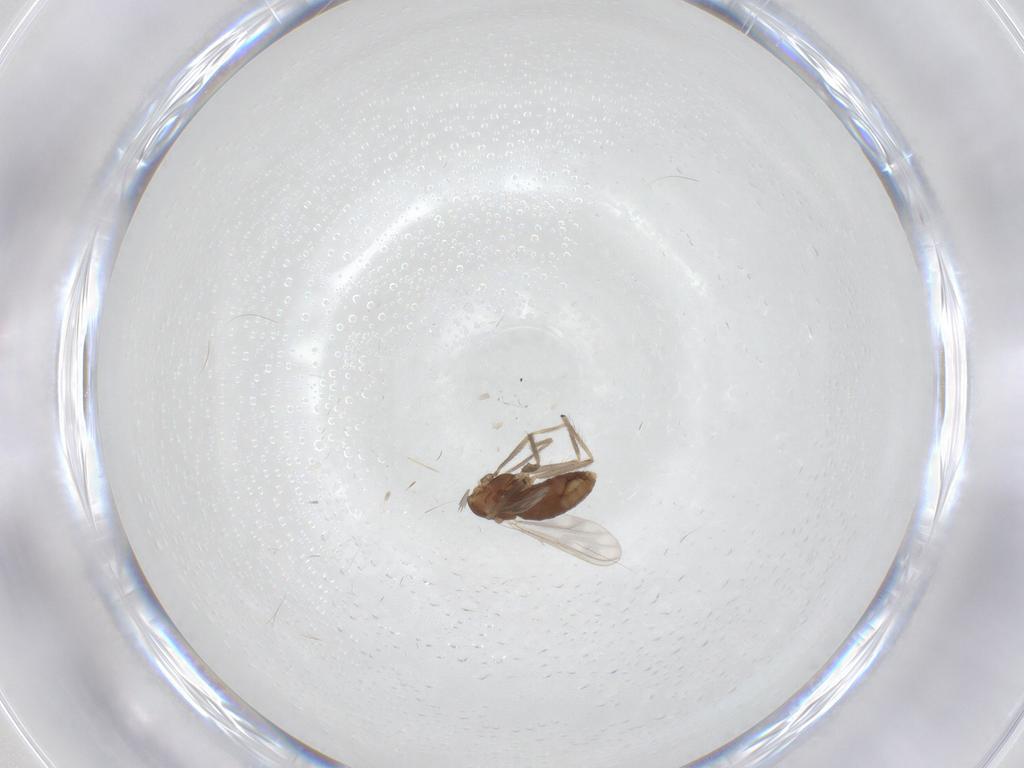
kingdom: Animalia
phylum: Arthropoda
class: Insecta
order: Diptera
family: Chironomidae
